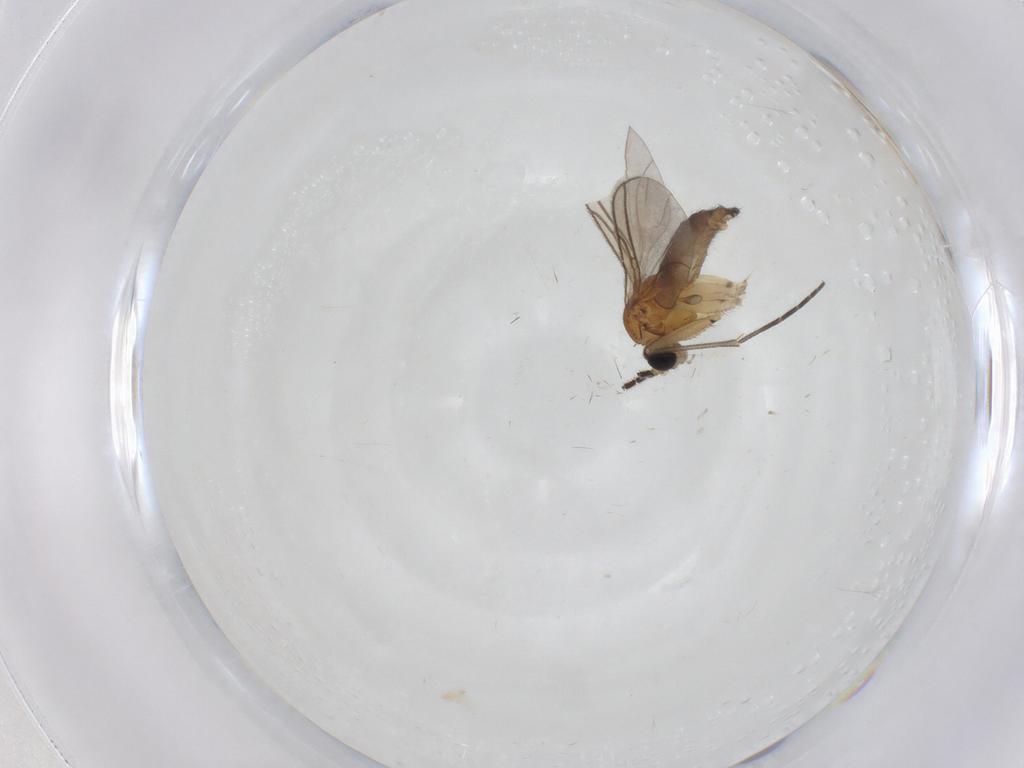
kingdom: Animalia
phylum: Arthropoda
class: Insecta
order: Diptera
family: Sciaridae
